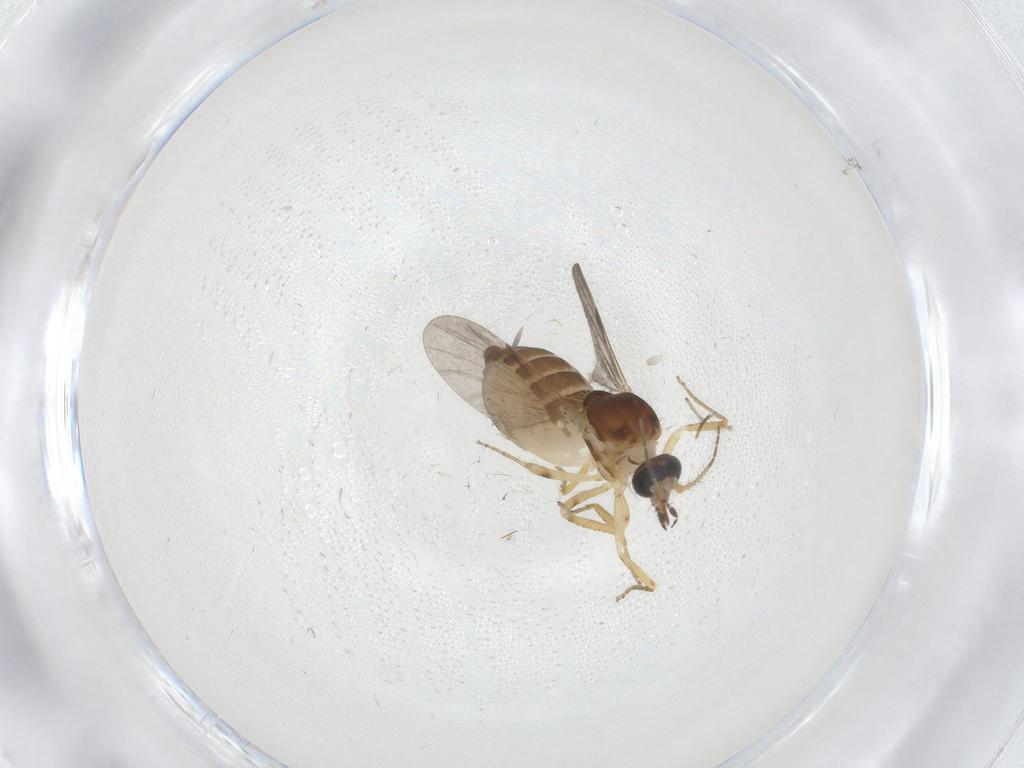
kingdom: Animalia
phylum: Arthropoda
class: Insecta
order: Diptera
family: Ceratopogonidae
